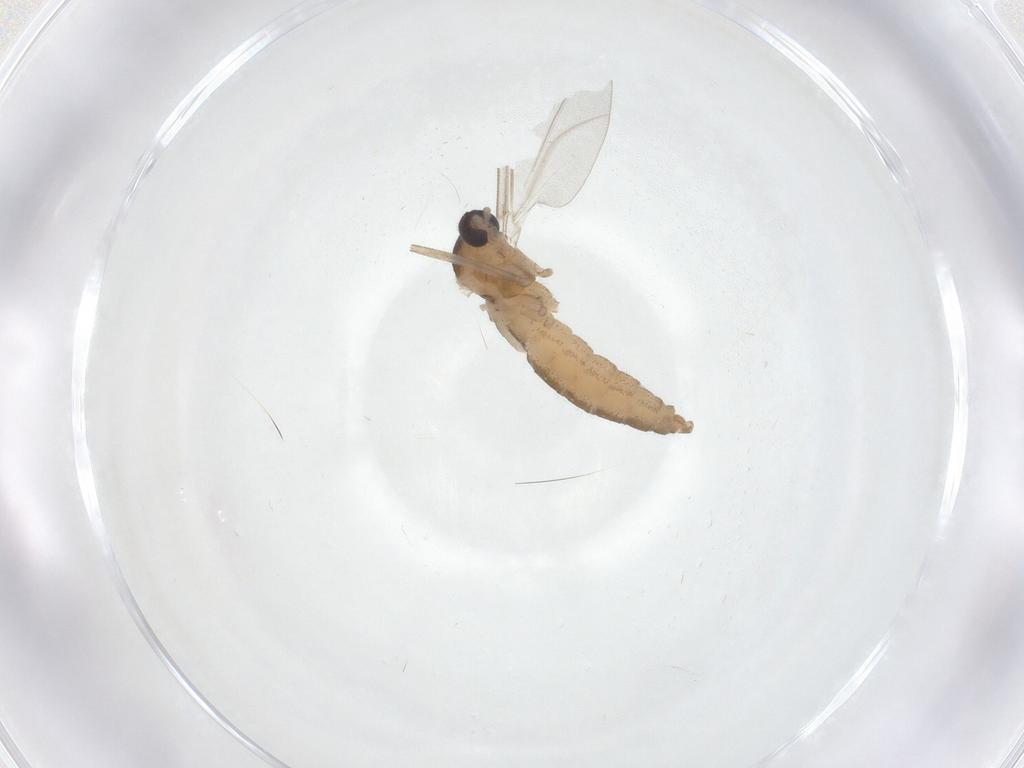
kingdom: Animalia
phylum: Arthropoda
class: Insecta
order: Diptera
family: Cecidomyiidae
